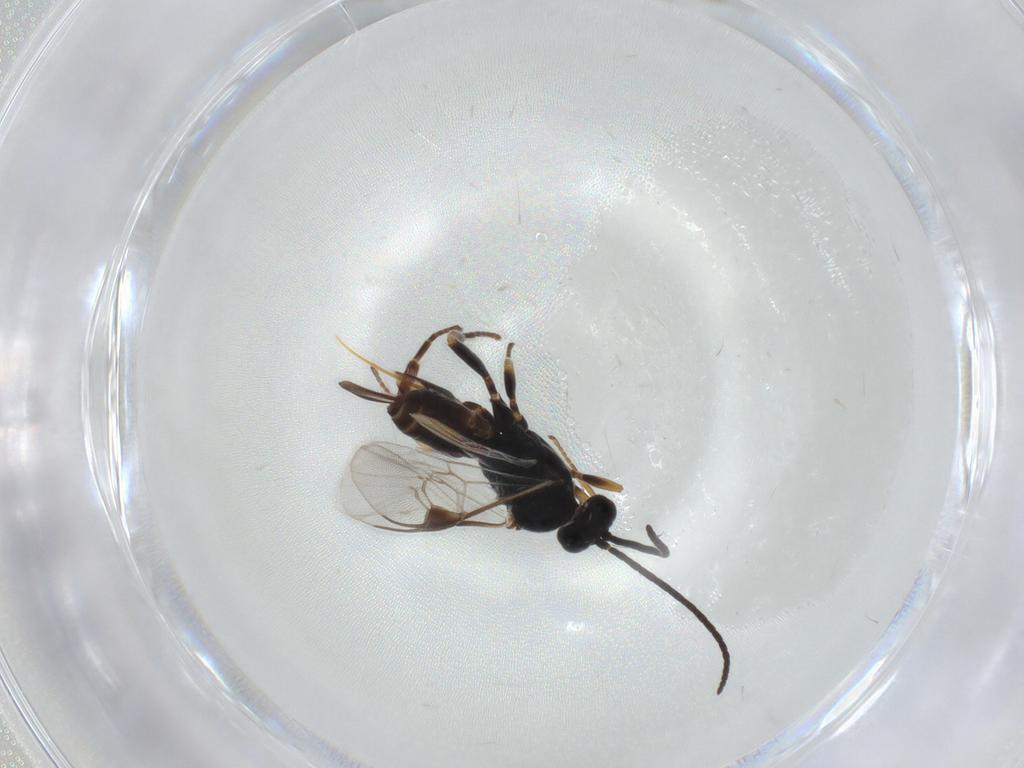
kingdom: Animalia
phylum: Arthropoda
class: Insecta
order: Hymenoptera
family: Braconidae
